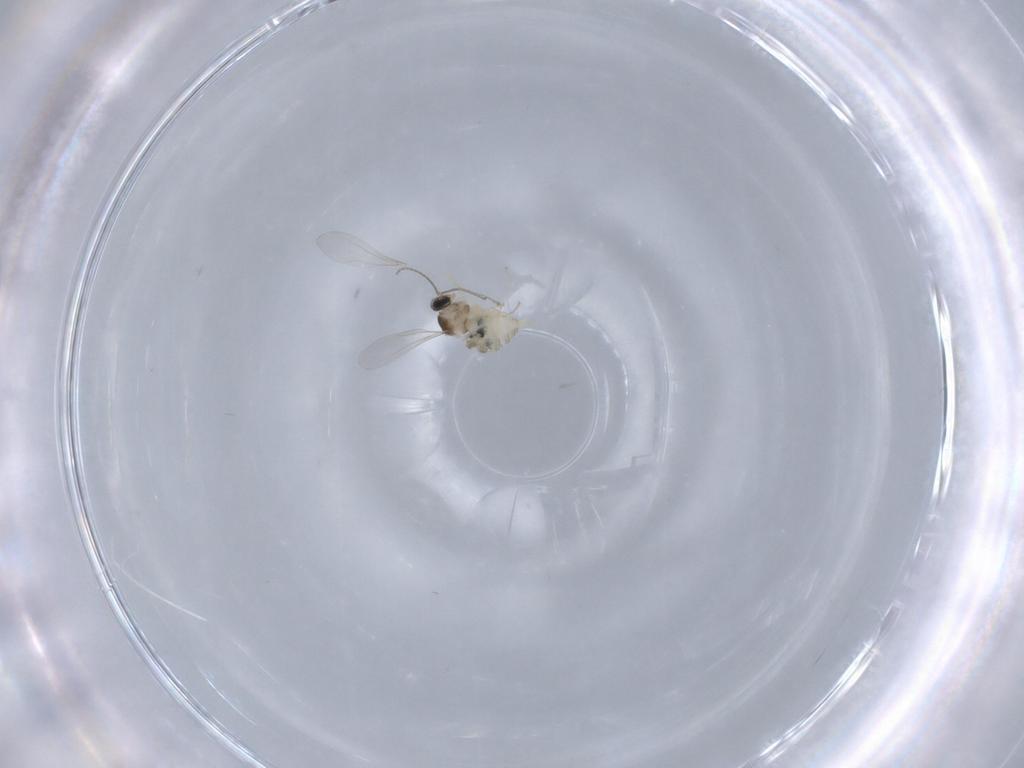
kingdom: Animalia
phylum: Arthropoda
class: Insecta
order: Diptera
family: Cecidomyiidae
